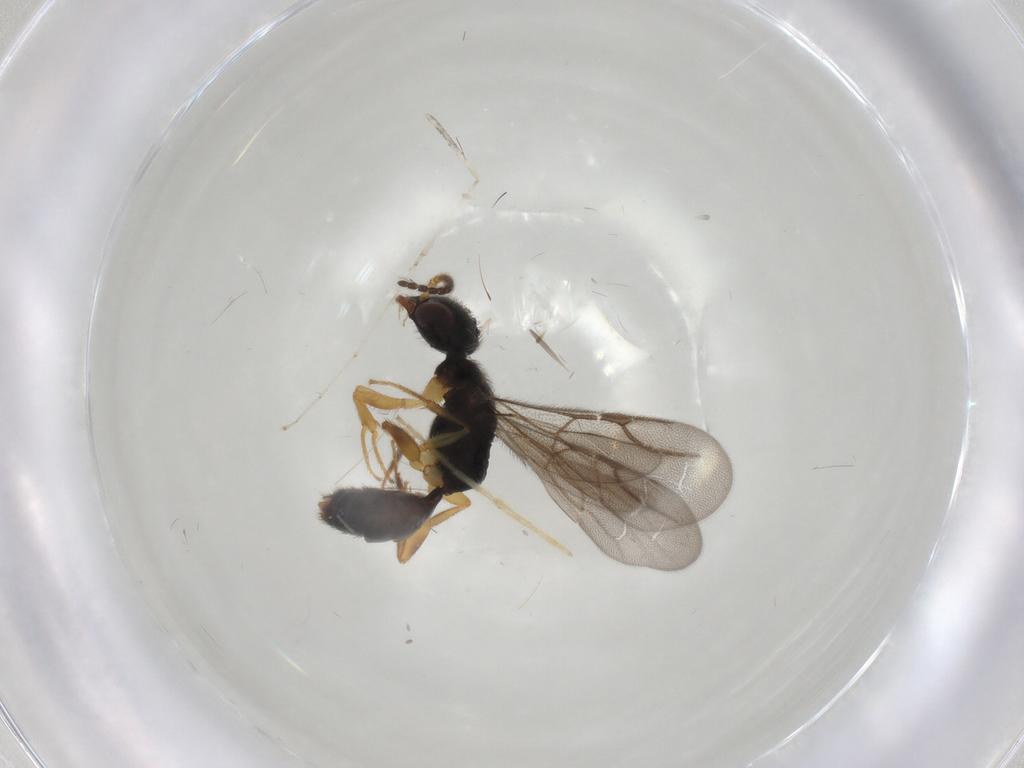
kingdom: Animalia
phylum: Arthropoda
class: Insecta
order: Hymenoptera
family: Bethylidae
